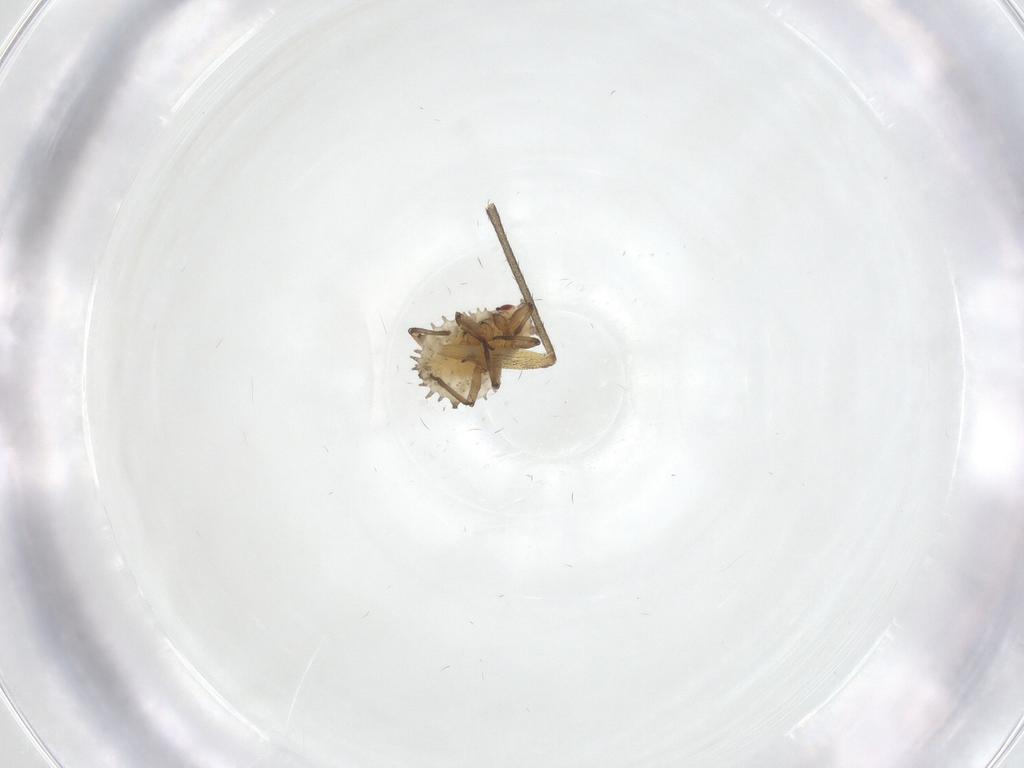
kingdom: Animalia
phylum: Arthropoda
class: Insecta
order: Hemiptera
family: Aphididae
